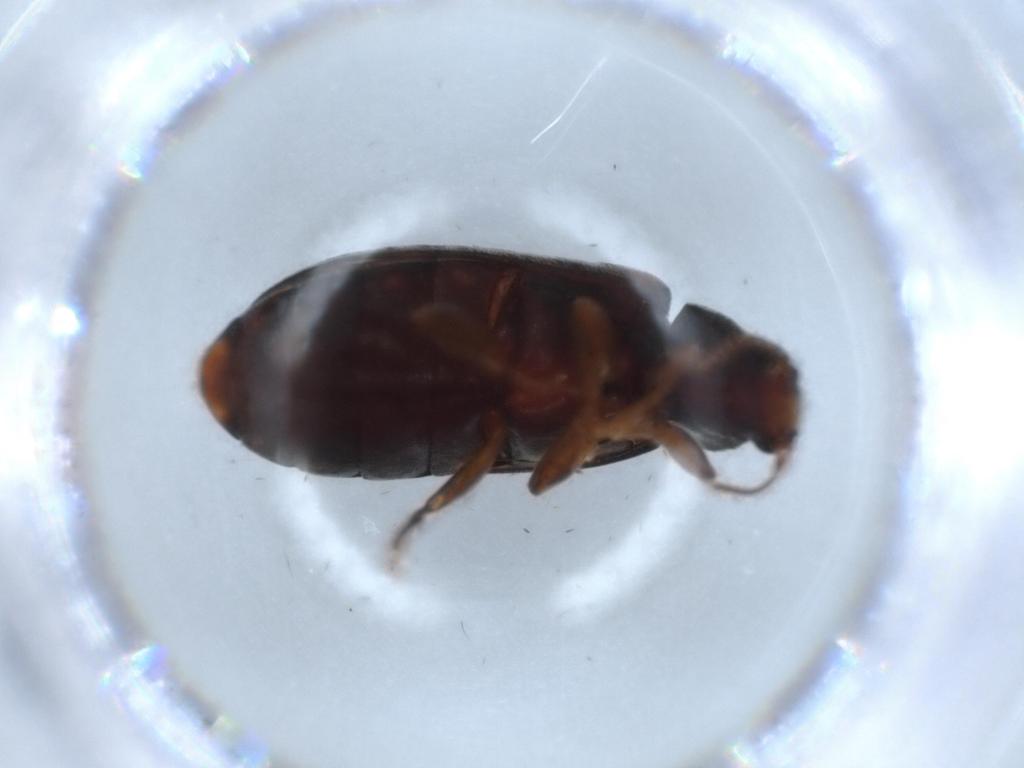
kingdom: Animalia
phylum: Arthropoda
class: Insecta
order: Coleoptera
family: Mycteridae
